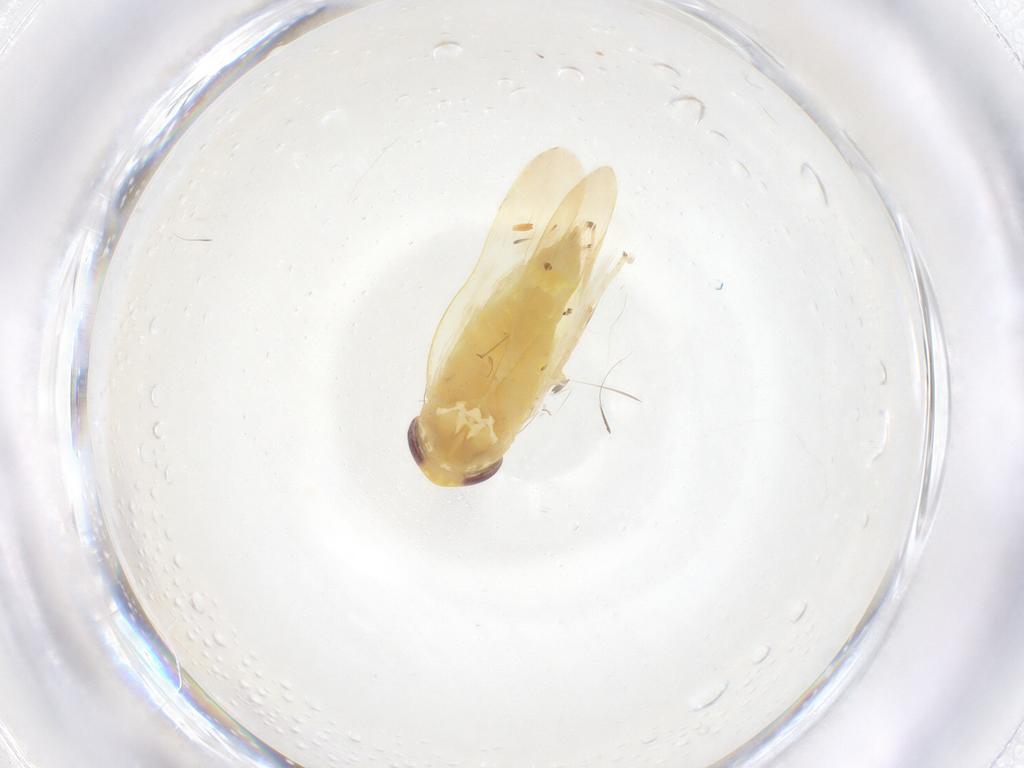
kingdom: Animalia
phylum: Arthropoda
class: Insecta
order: Hemiptera
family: Cicadellidae
